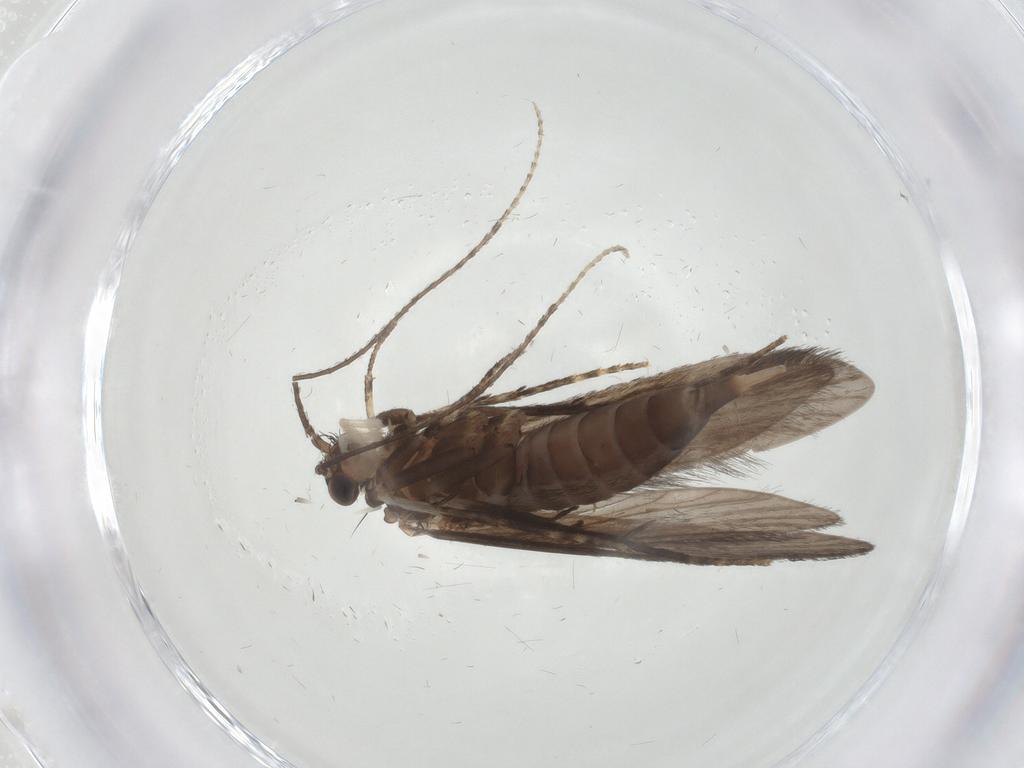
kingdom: Animalia
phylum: Arthropoda
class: Insecta
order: Trichoptera
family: Xiphocentronidae
